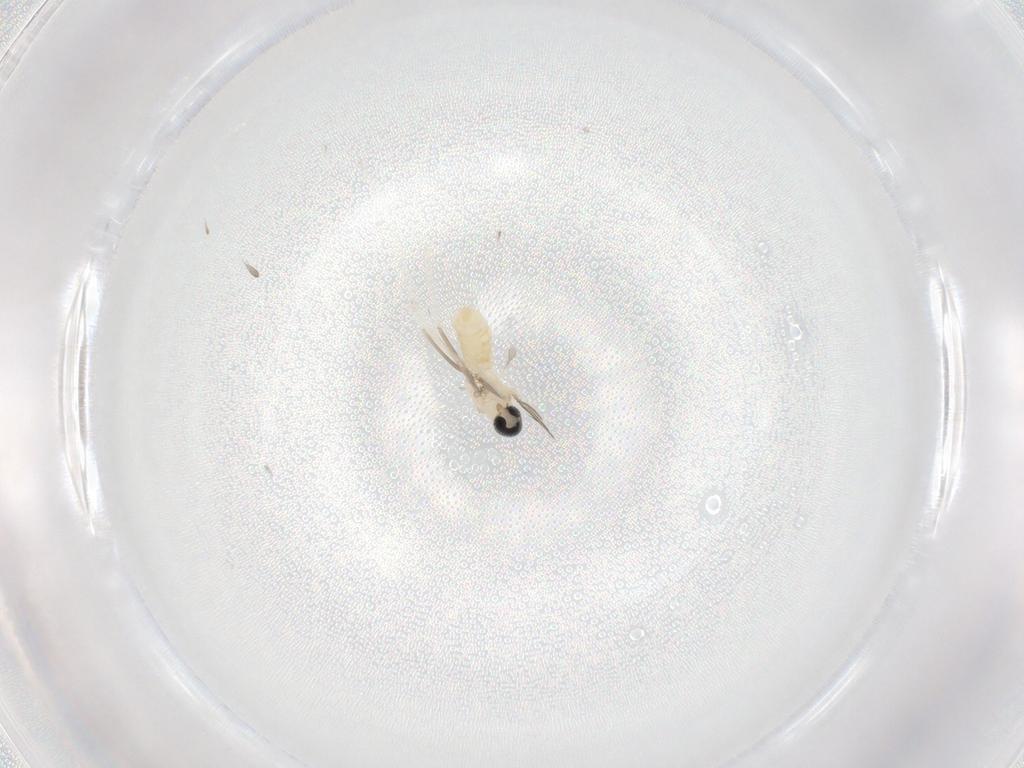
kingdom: Animalia
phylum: Arthropoda
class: Insecta
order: Diptera
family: Cecidomyiidae
